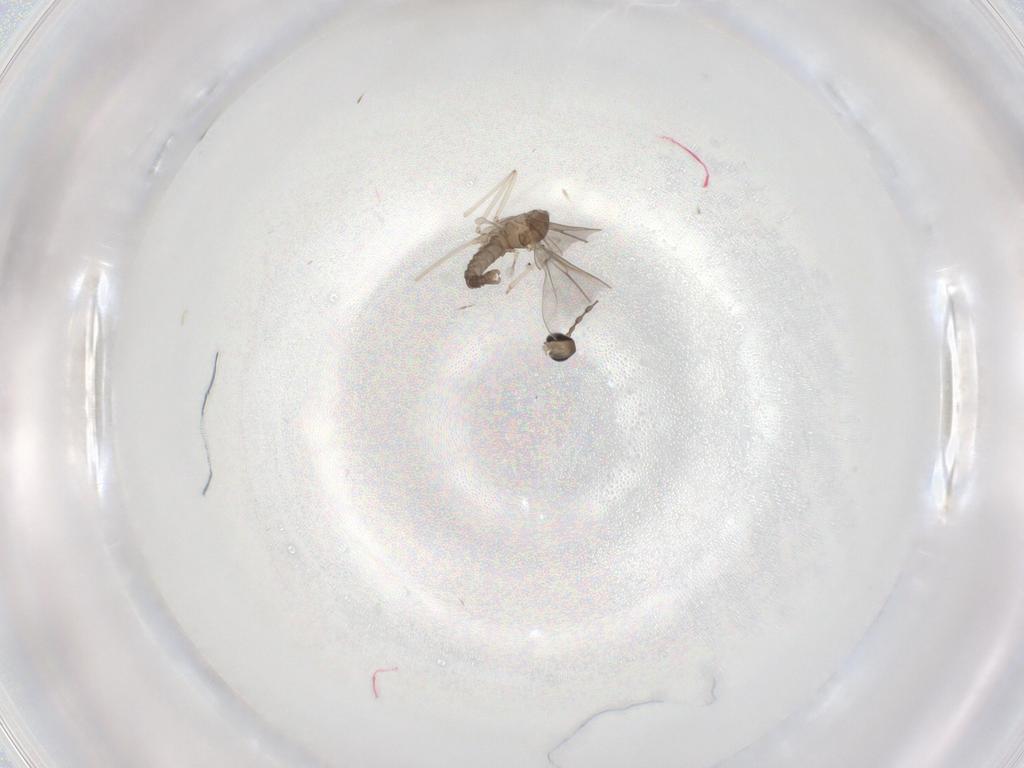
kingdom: Animalia
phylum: Arthropoda
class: Insecta
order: Diptera
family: Cecidomyiidae
